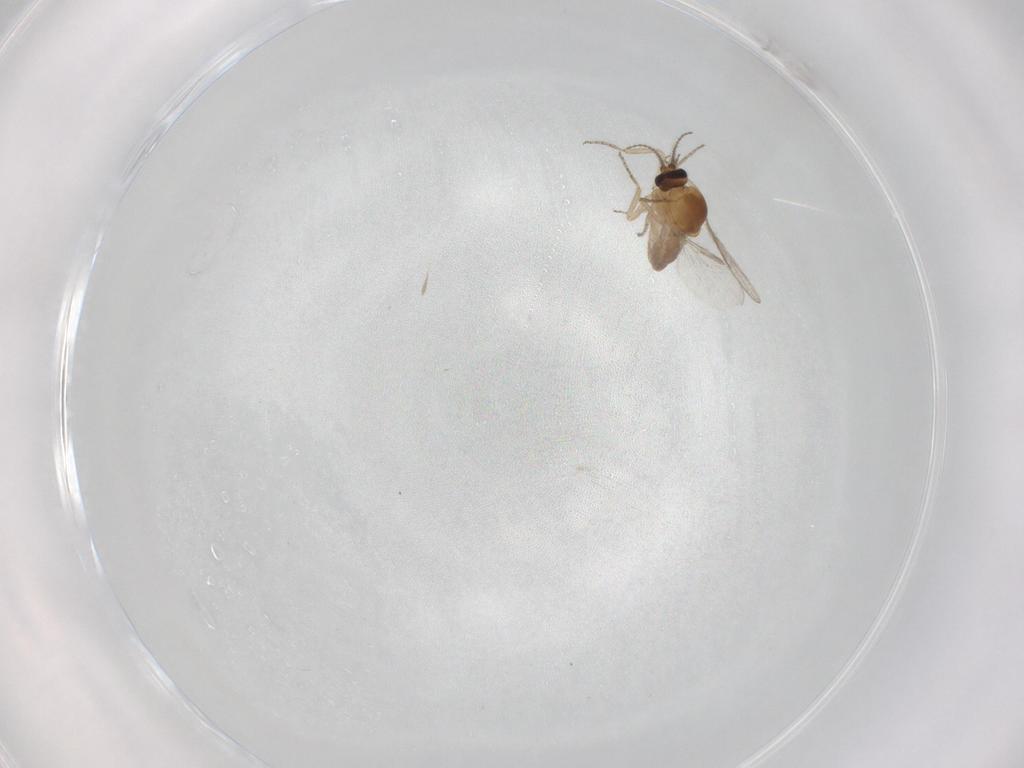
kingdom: Animalia
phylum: Arthropoda
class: Insecta
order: Diptera
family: Ceratopogonidae
